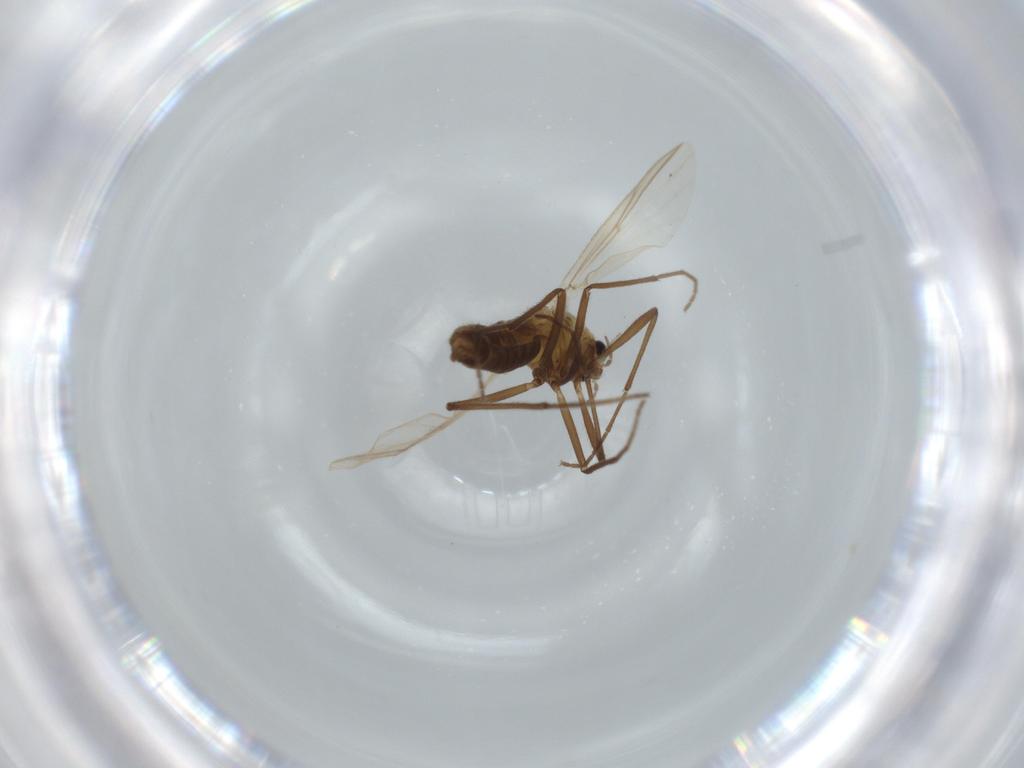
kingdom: Animalia
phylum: Arthropoda
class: Insecta
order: Diptera
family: Chironomidae
